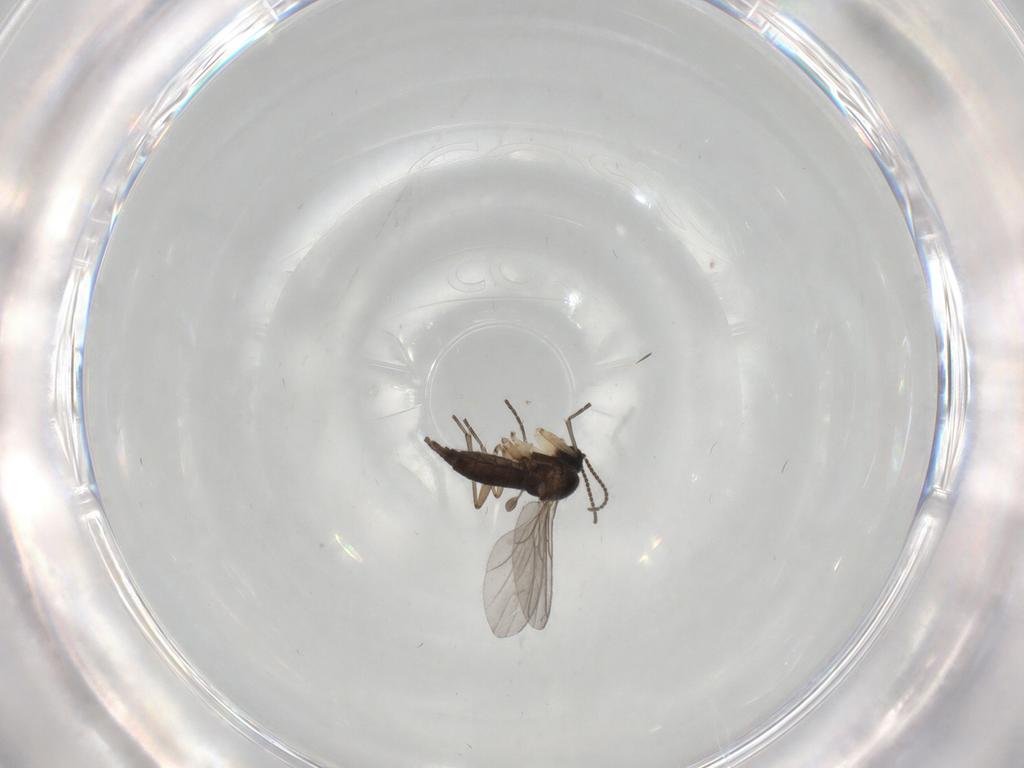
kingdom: Animalia
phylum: Arthropoda
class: Insecta
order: Diptera
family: Sciaridae
